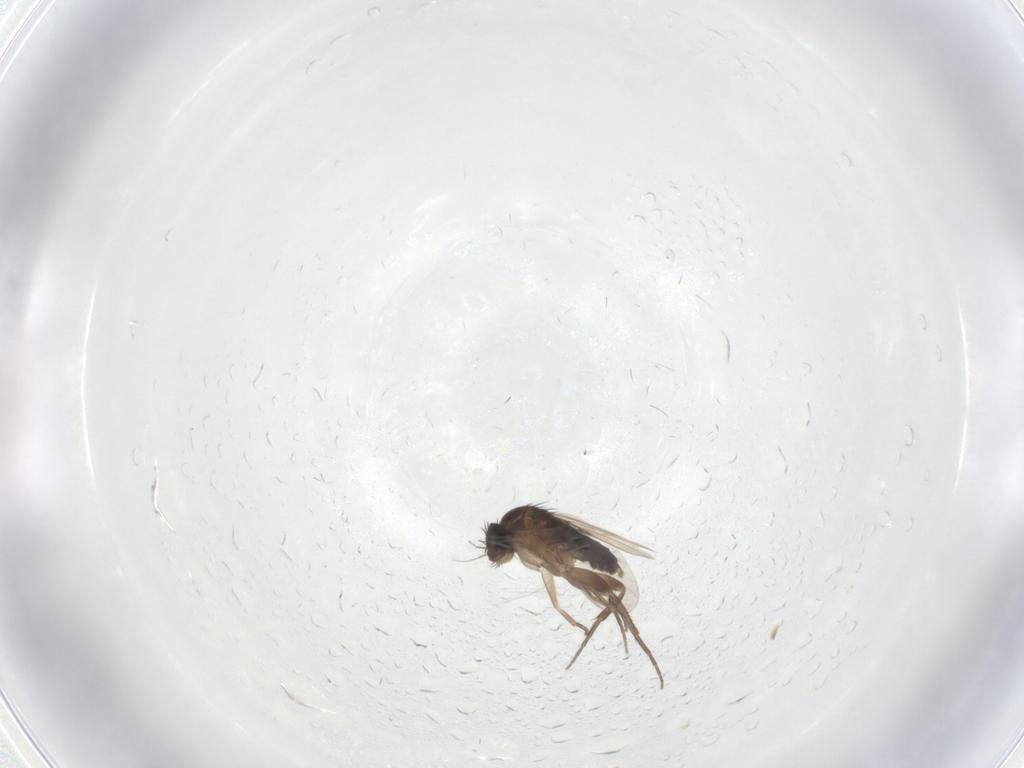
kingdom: Animalia
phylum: Arthropoda
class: Insecta
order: Diptera
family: Phoridae
